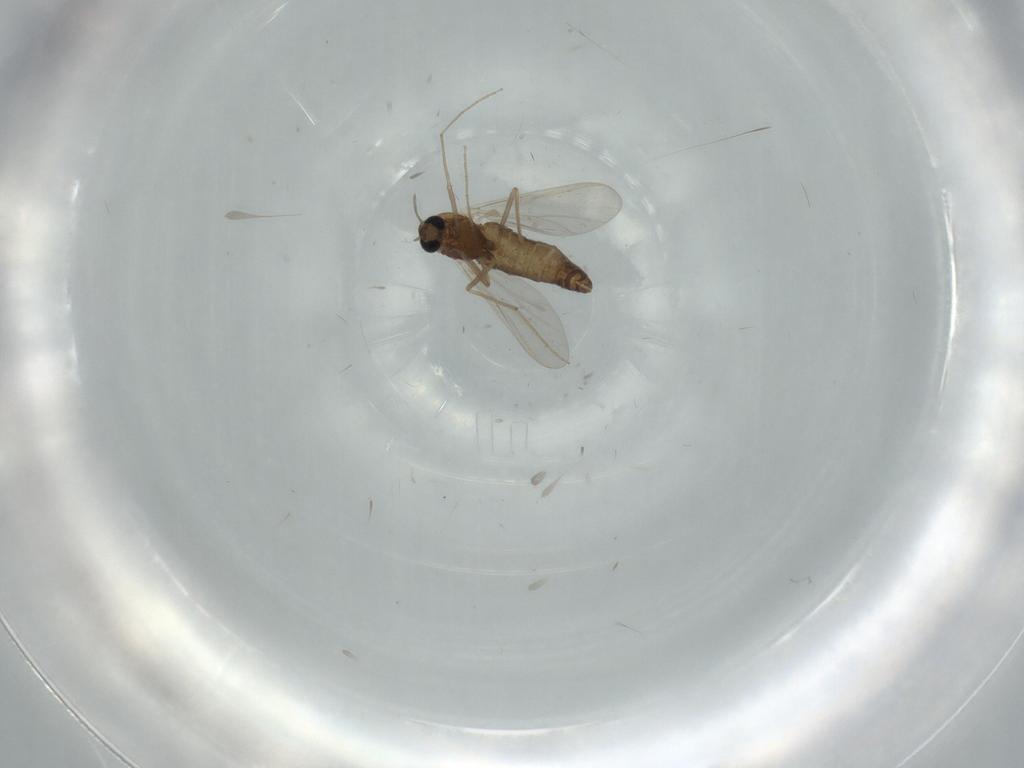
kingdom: Animalia
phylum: Arthropoda
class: Insecta
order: Diptera
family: Chironomidae
